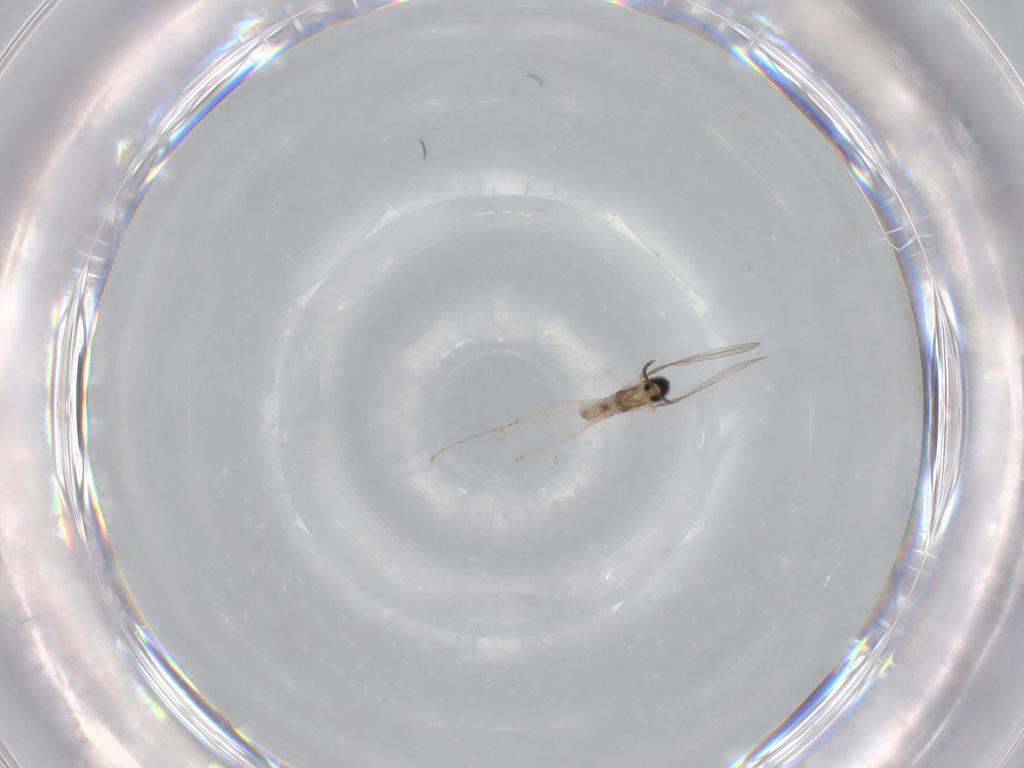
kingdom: Animalia
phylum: Arthropoda
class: Insecta
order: Diptera
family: Cecidomyiidae
